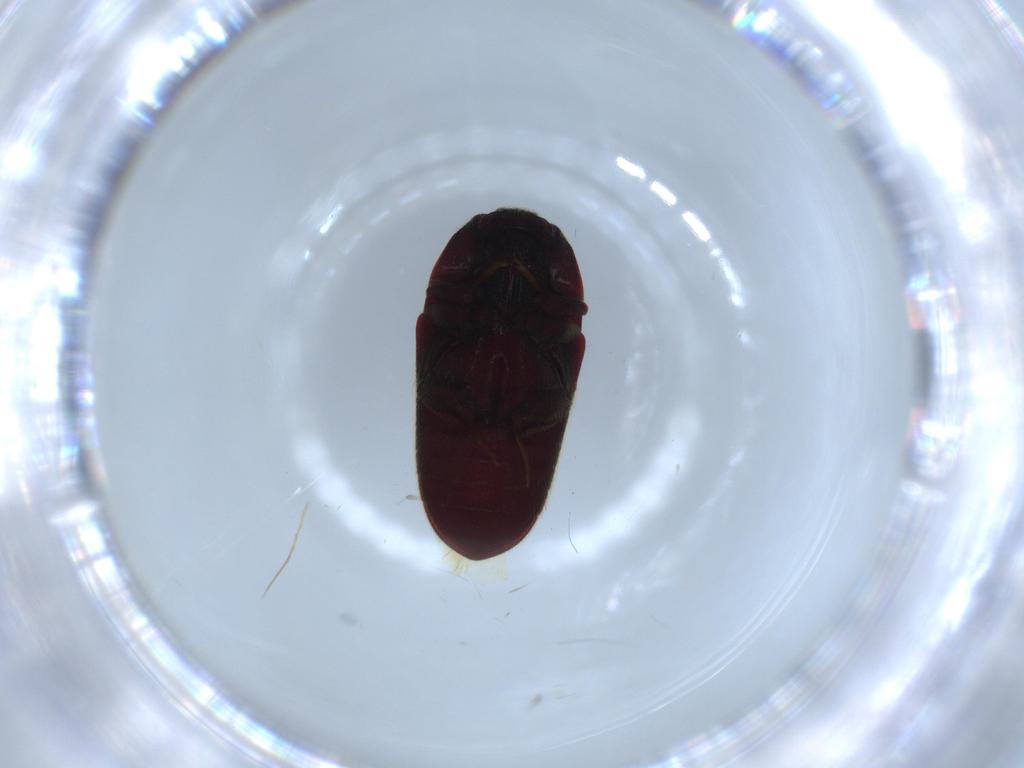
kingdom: Animalia
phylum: Arthropoda
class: Insecta
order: Coleoptera
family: Throscidae
